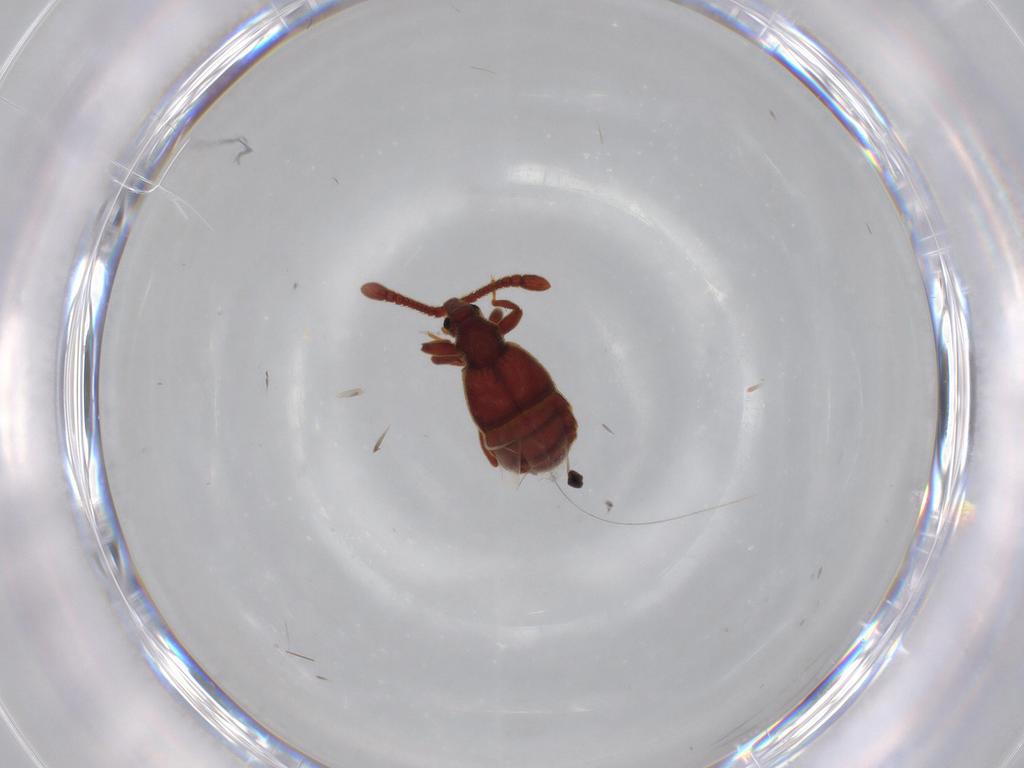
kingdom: Animalia
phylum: Arthropoda
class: Insecta
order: Coleoptera
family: Staphylinidae
